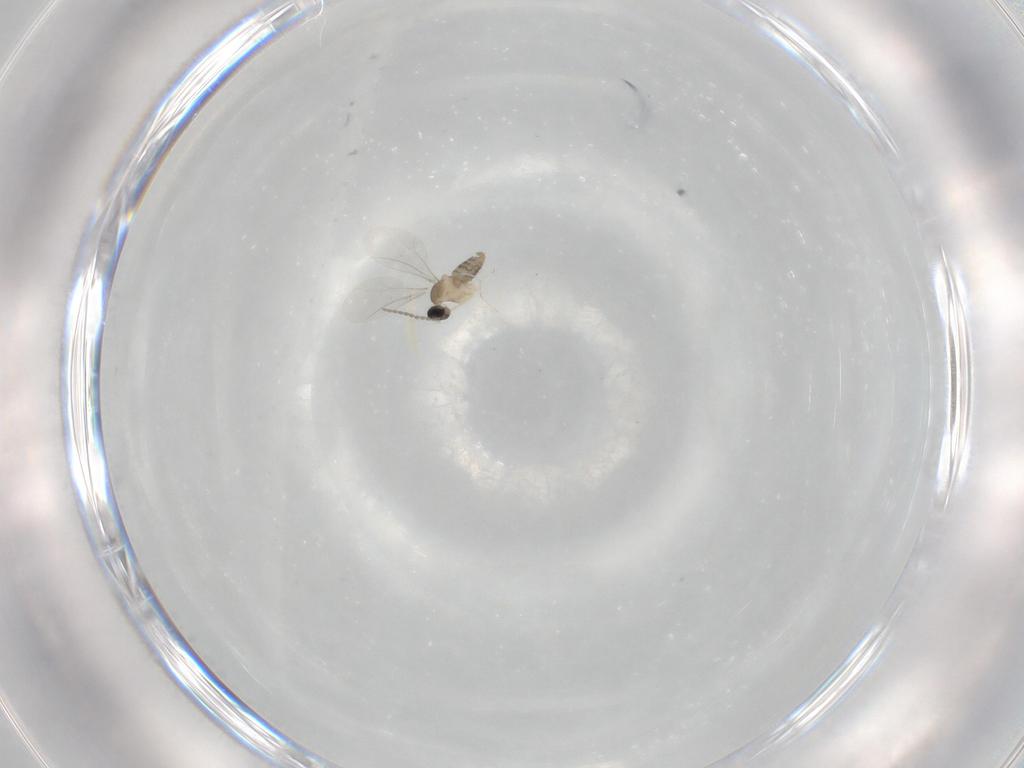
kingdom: Animalia
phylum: Arthropoda
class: Insecta
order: Diptera
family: Cecidomyiidae
